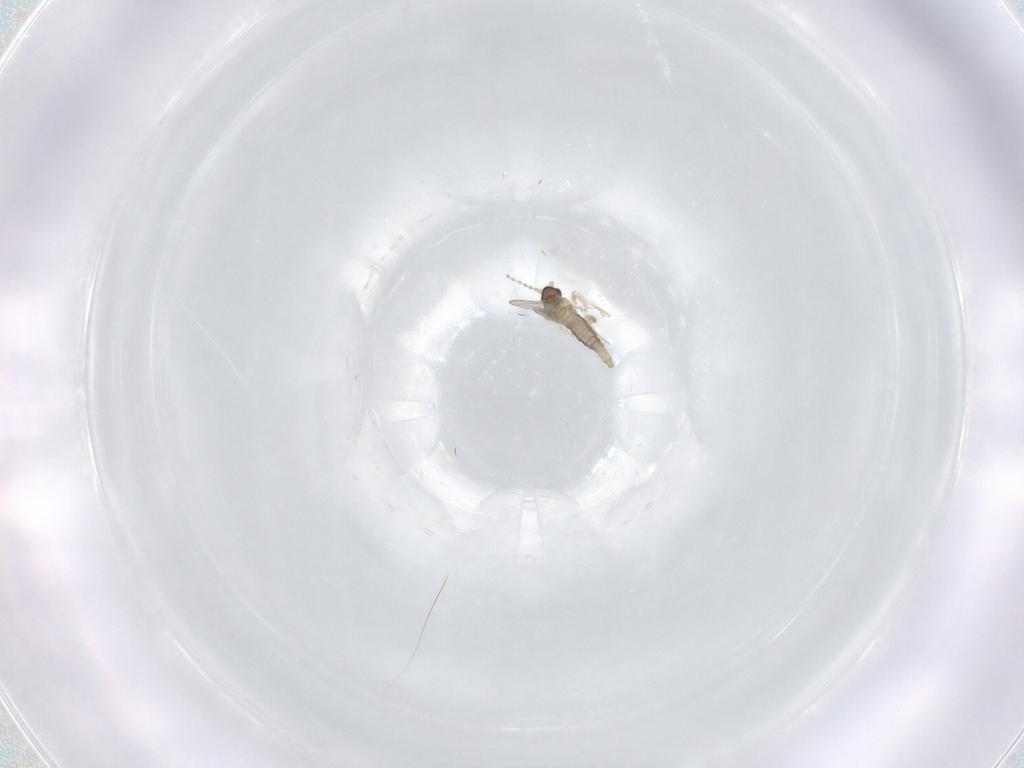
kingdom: Animalia
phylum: Arthropoda
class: Insecta
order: Diptera
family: Cecidomyiidae
